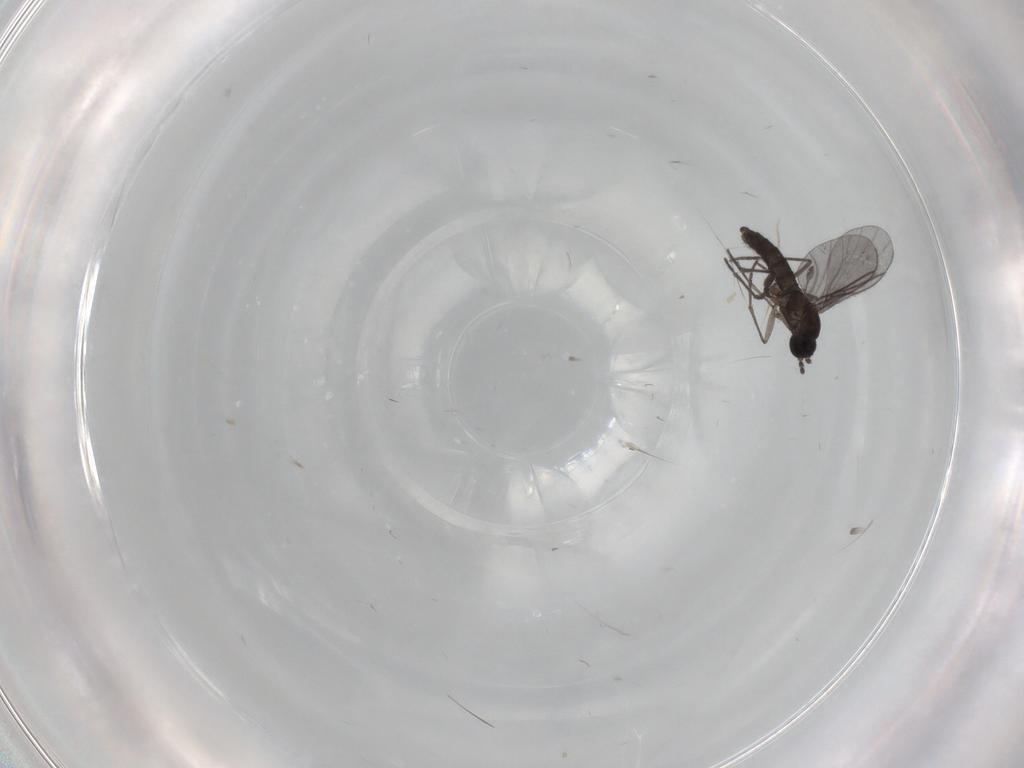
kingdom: Animalia
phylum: Arthropoda
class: Insecta
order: Diptera
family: Sciaridae
